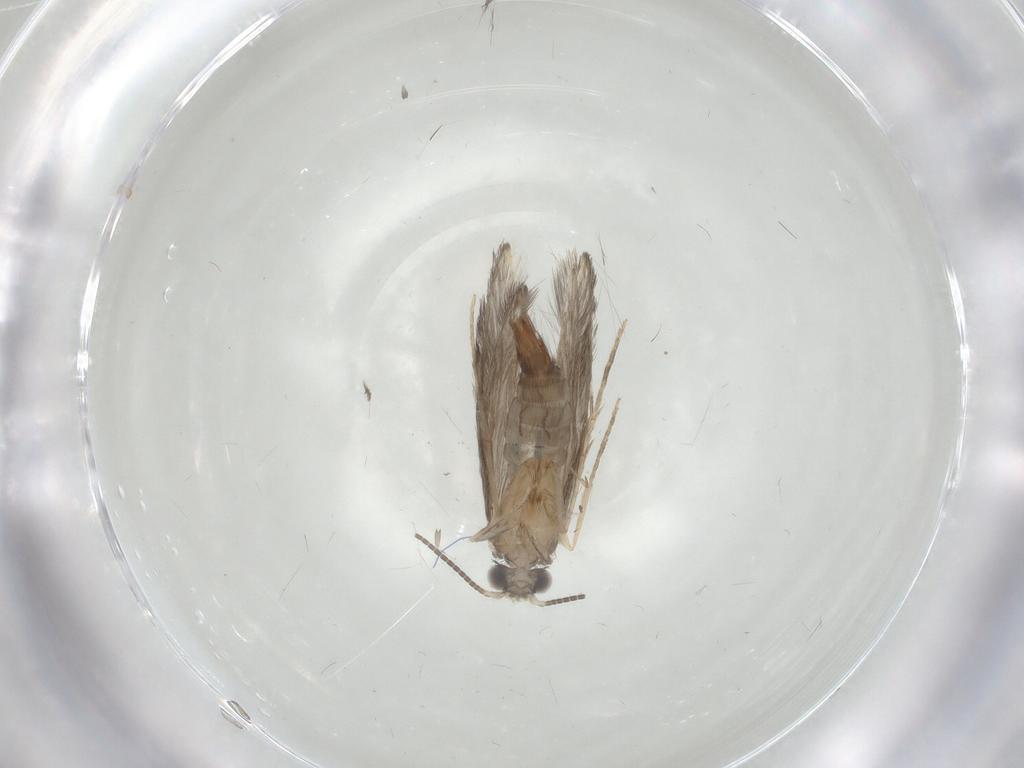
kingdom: Animalia
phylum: Arthropoda
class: Insecta
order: Trichoptera
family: Hydroptilidae
